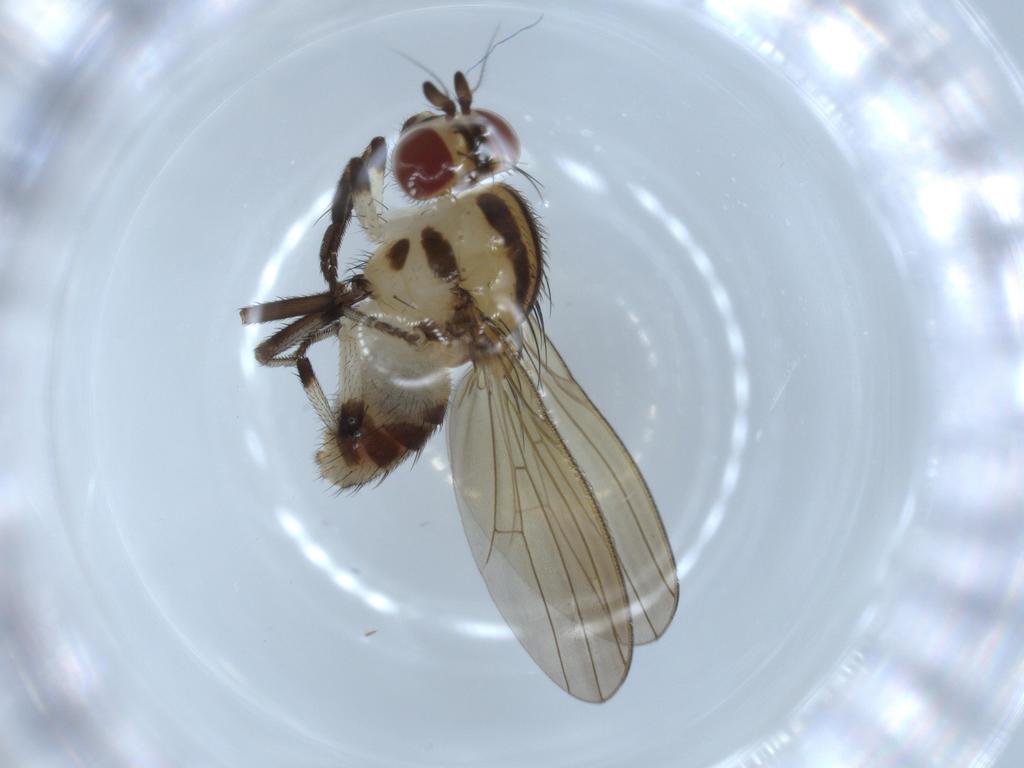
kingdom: Animalia
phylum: Arthropoda
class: Insecta
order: Diptera
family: Lauxaniidae
